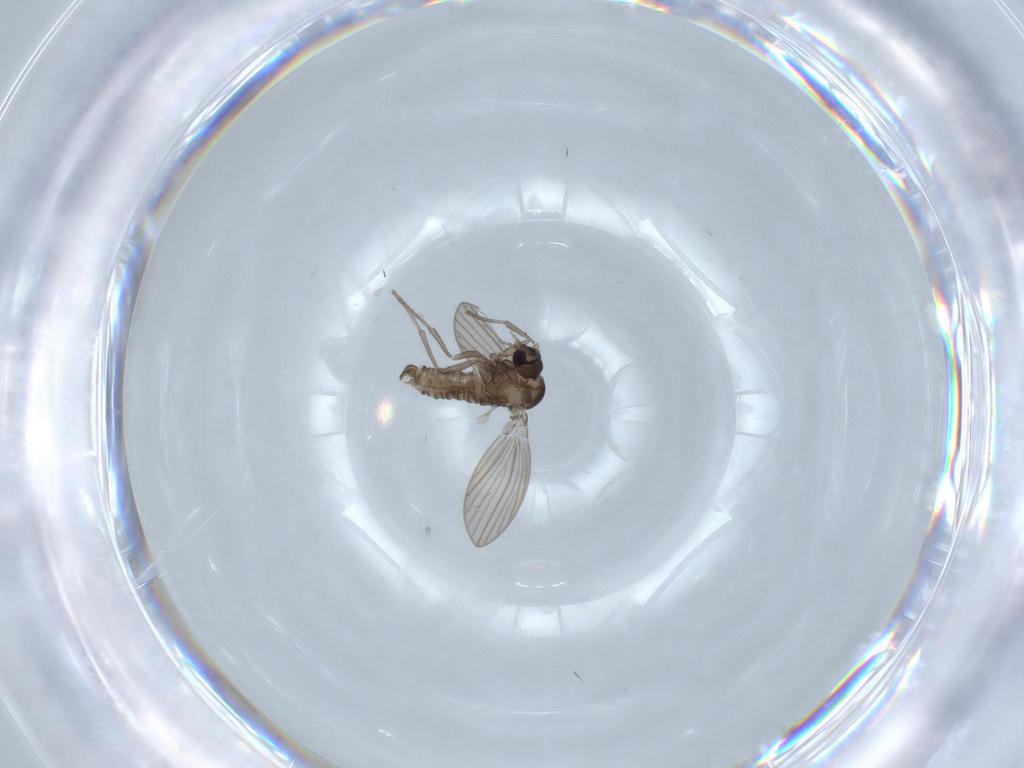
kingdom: Animalia
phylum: Arthropoda
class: Insecta
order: Diptera
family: Psychodidae
